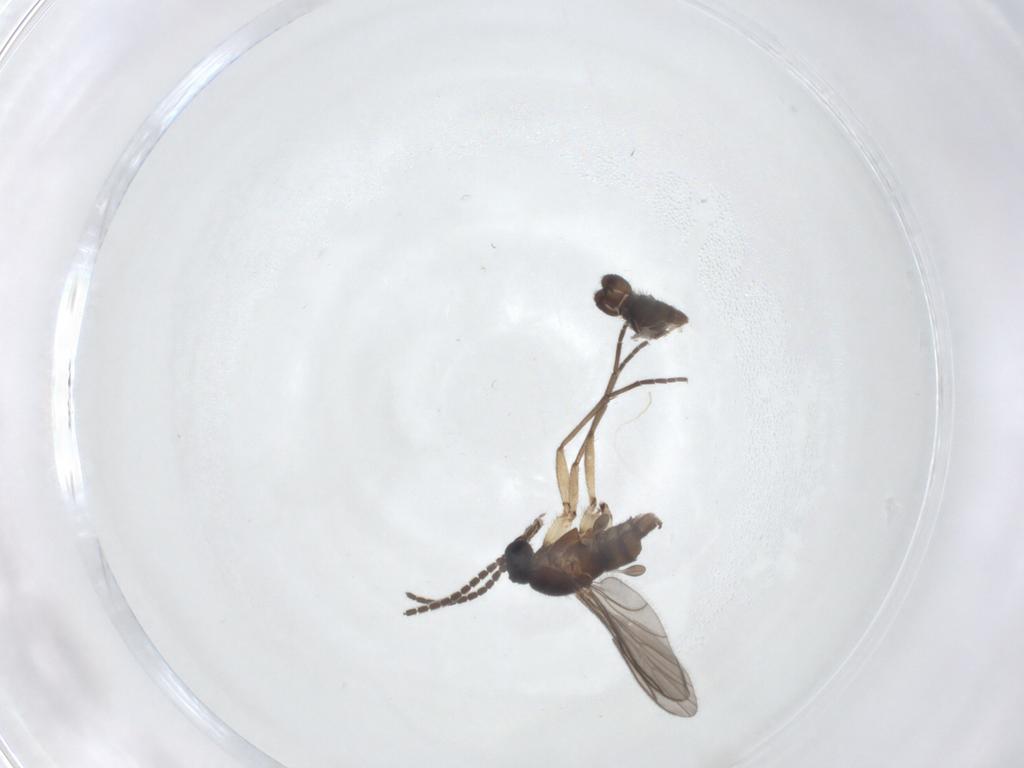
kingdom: Animalia
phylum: Arthropoda
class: Insecta
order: Diptera
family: Sciaridae
